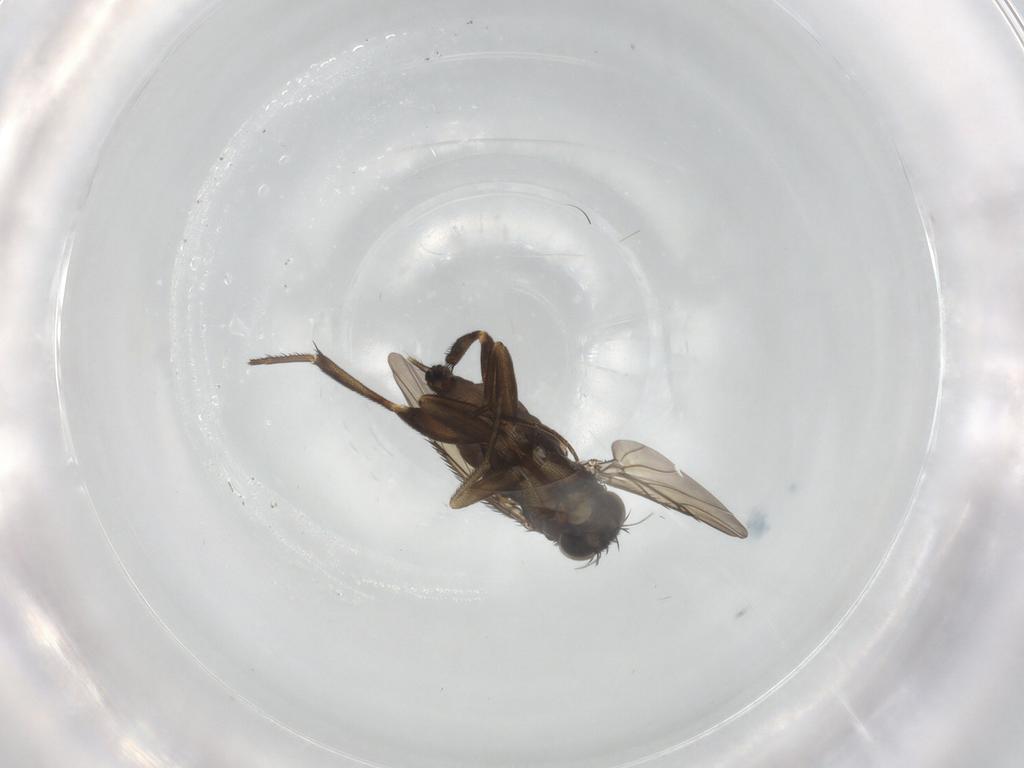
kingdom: Animalia
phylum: Arthropoda
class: Insecta
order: Diptera
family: Phoridae
